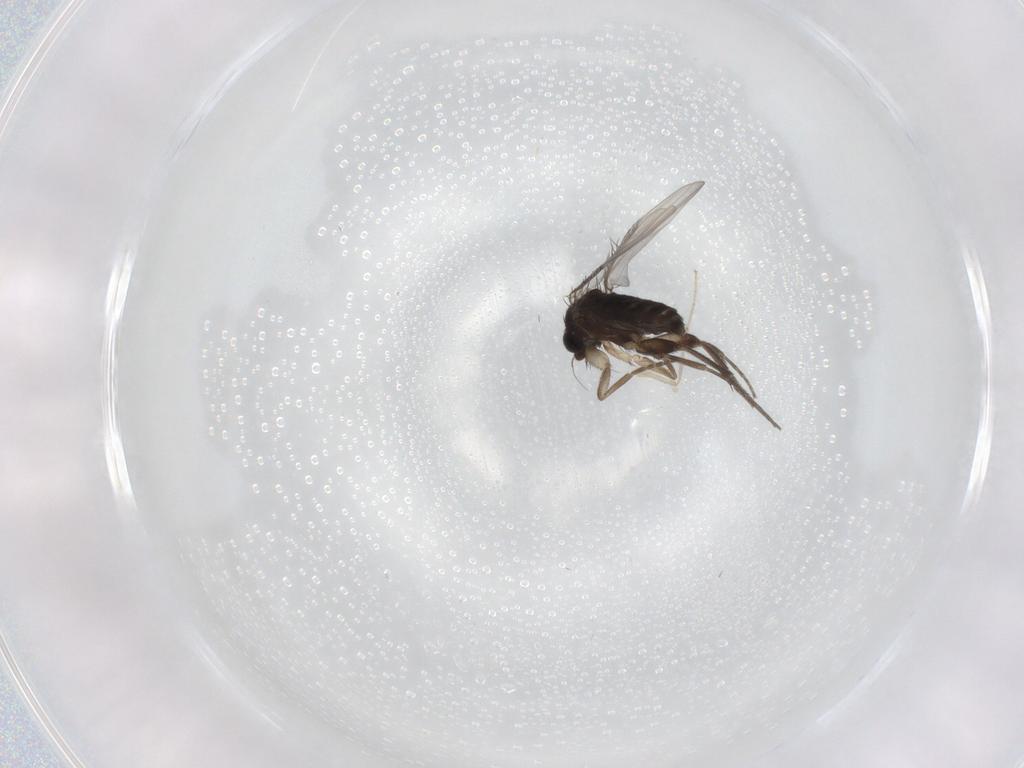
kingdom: Animalia
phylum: Arthropoda
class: Insecta
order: Diptera
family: Chironomidae
